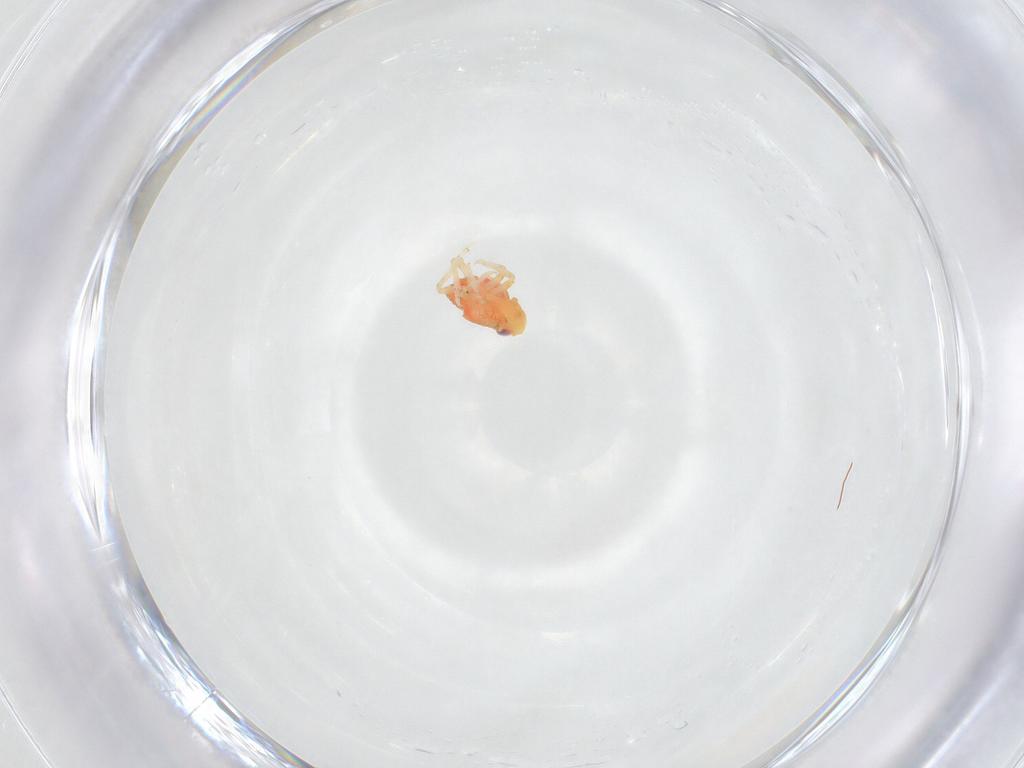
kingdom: Animalia
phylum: Arthropoda
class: Insecta
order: Hemiptera
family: Issidae
